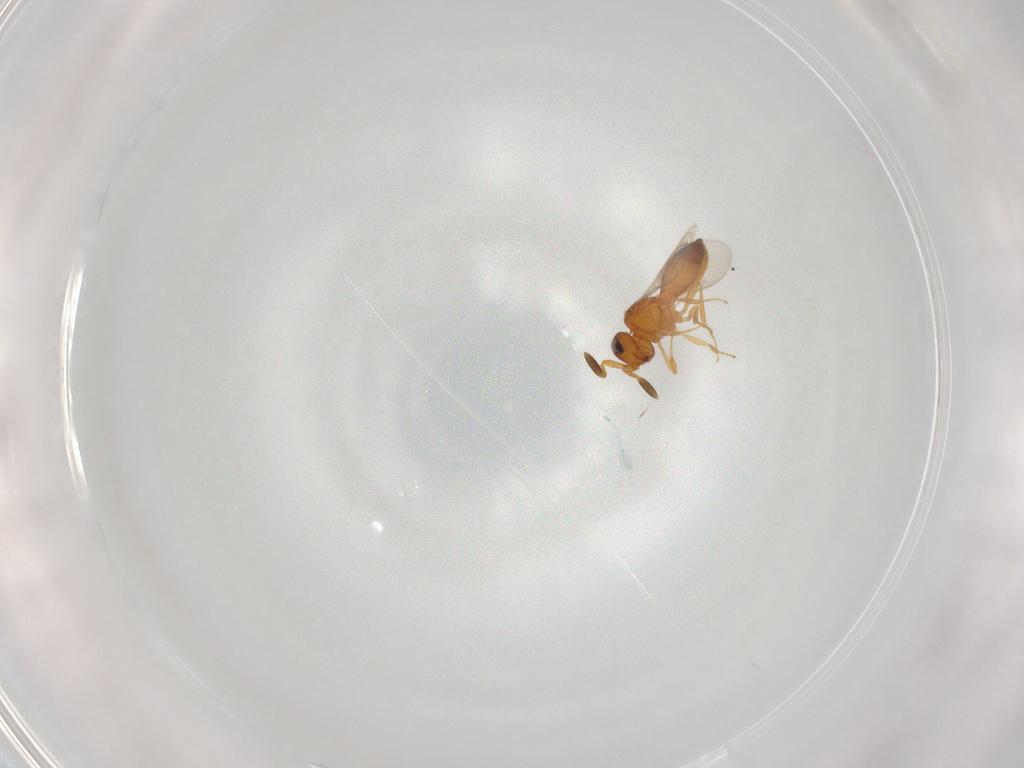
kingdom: Animalia
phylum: Arthropoda
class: Insecta
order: Hymenoptera
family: Scelionidae
